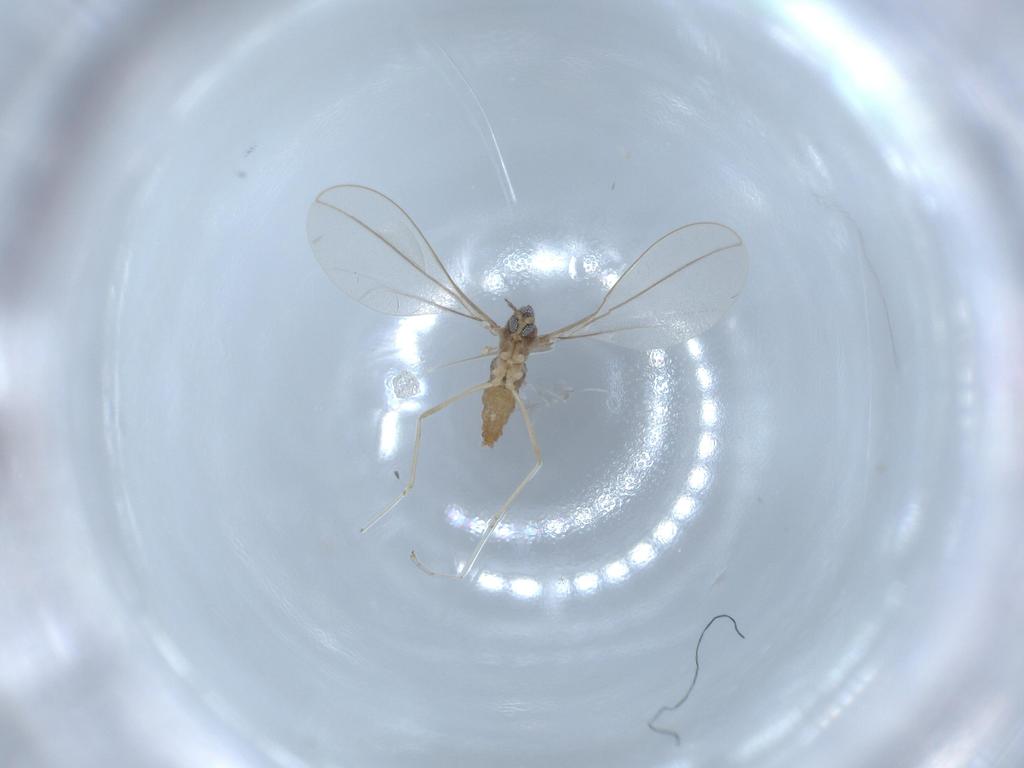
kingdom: Animalia
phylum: Arthropoda
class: Insecta
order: Diptera
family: Cecidomyiidae
